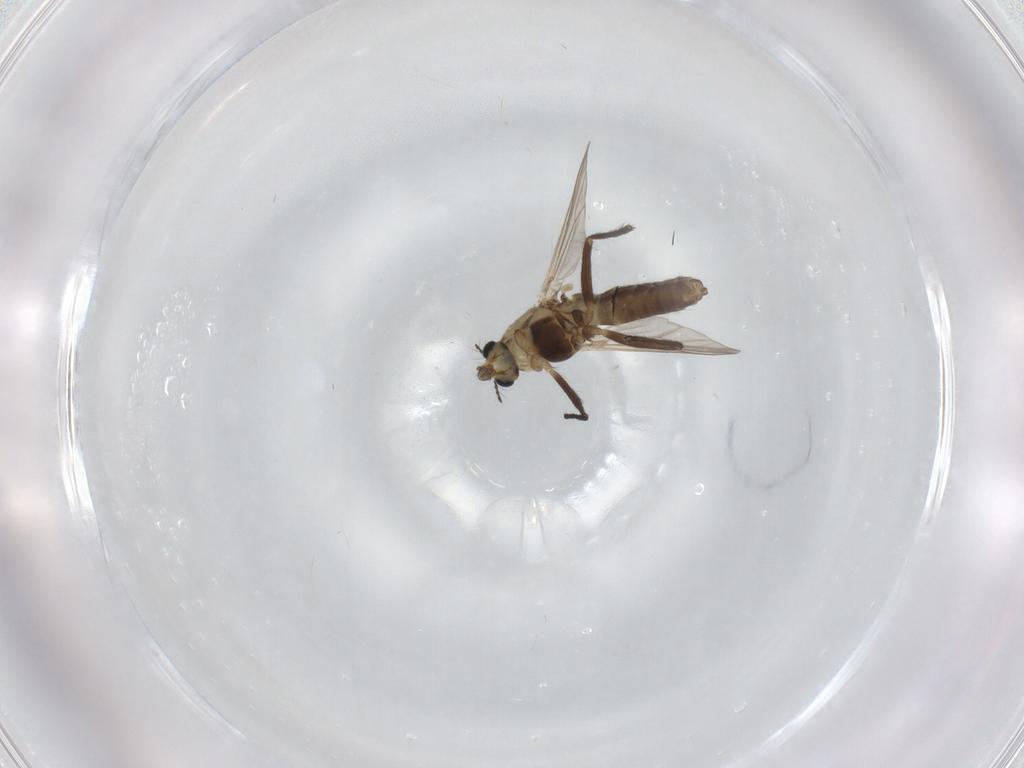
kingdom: Animalia
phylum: Arthropoda
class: Insecta
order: Diptera
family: Chironomidae
